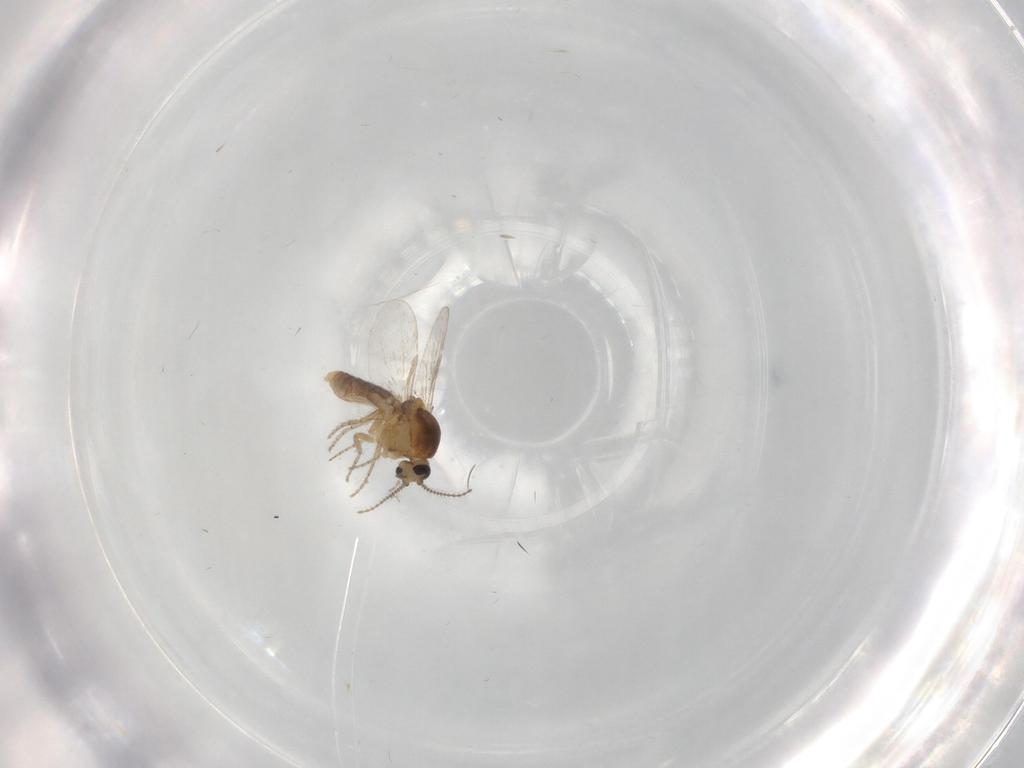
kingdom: Animalia
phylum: Arthropoda
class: Insecta
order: Diptera
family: Ceratopogonidae
